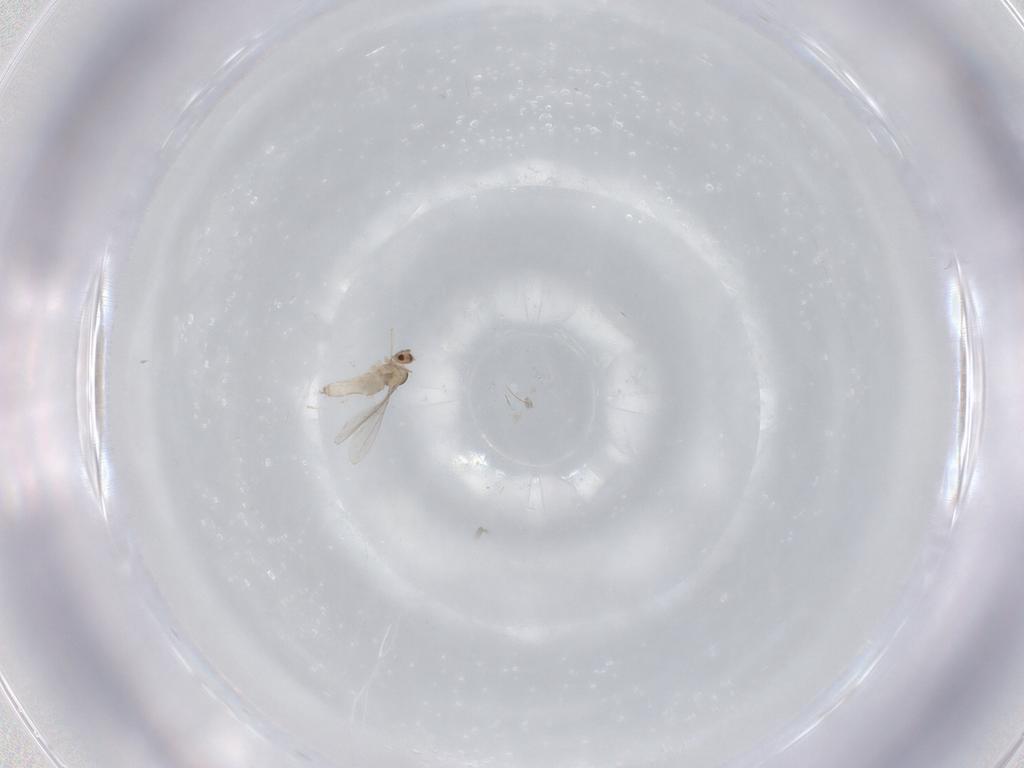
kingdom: Animalia
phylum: Arthropoda
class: Insecta
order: Diptera
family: Cecidomyiidae
